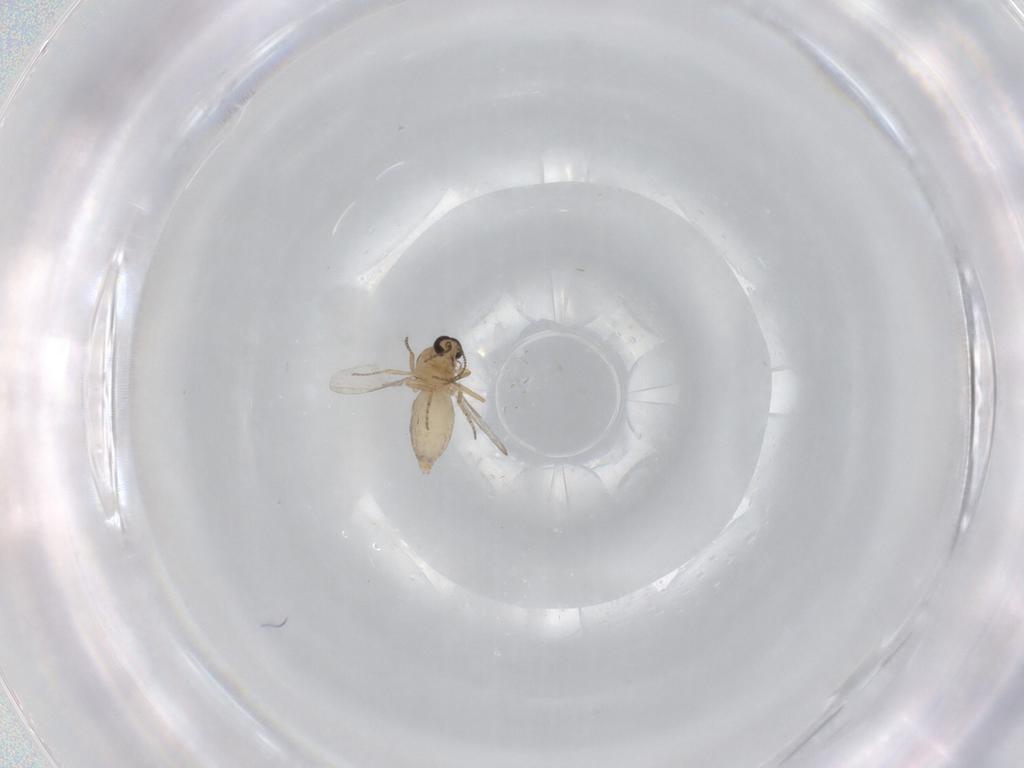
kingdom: Animalia
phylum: Arthropoda
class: Insecta
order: Diptera
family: Ceratopogonidae
